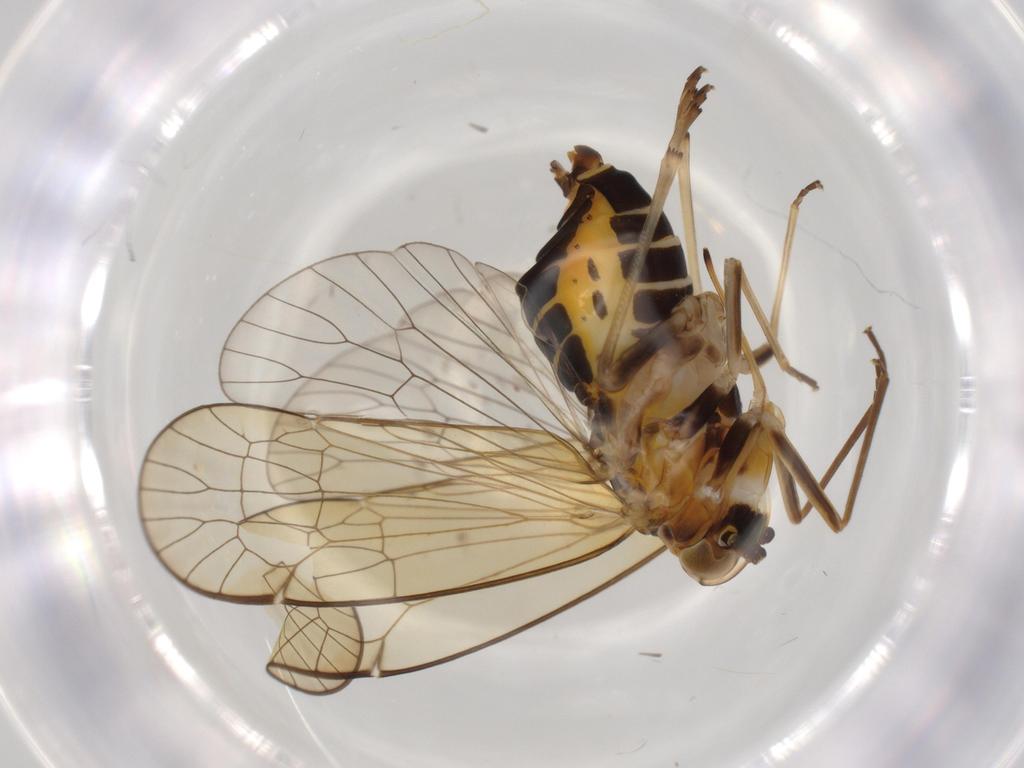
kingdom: Animalia
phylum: Arthropoda
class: Insecta
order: Hemiptera
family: Kinnaridae
